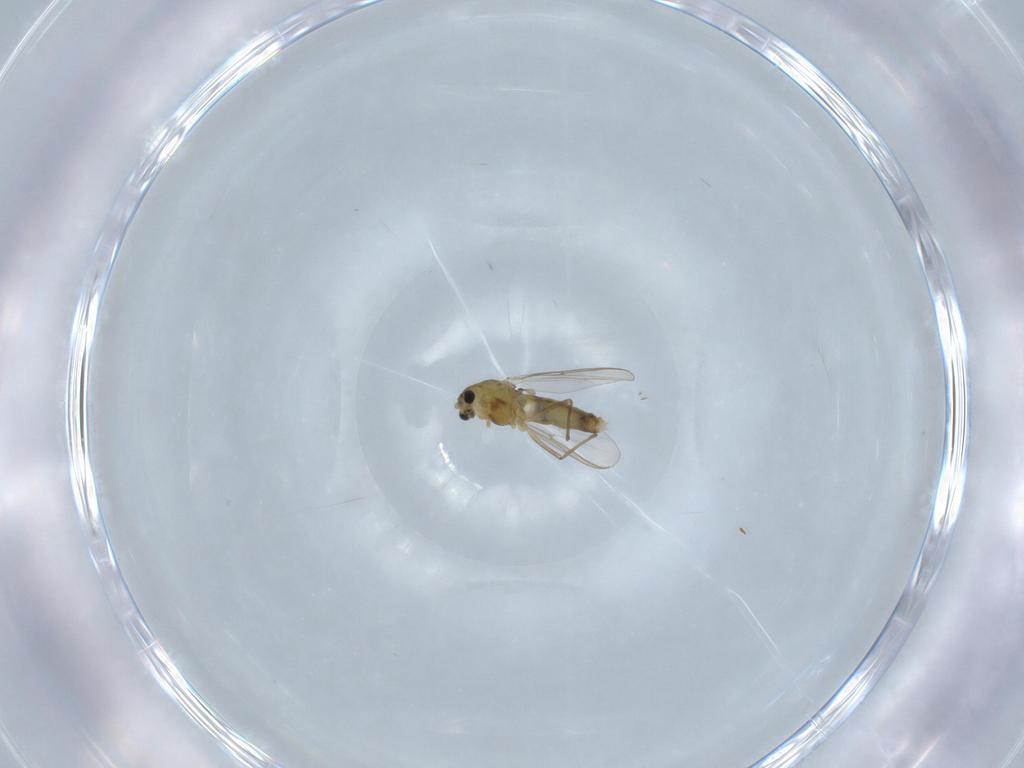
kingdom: Animalia
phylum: Arthropoda
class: Insecta
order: Diptera
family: Chironomidae
